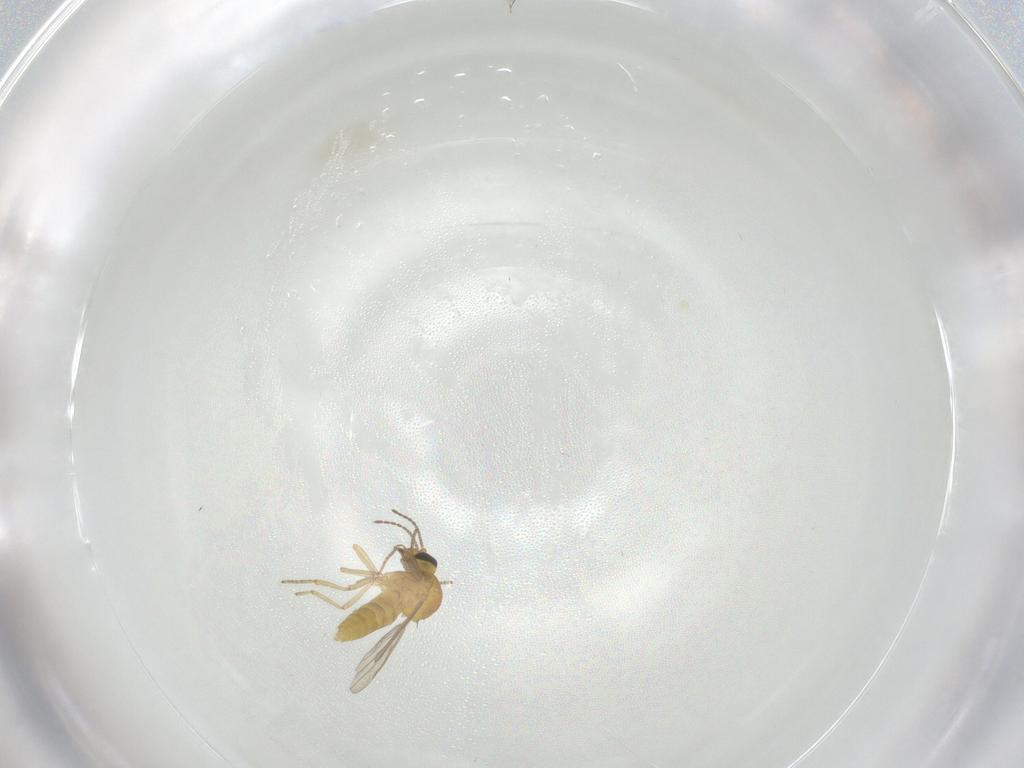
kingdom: Animalia
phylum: Arthropoda
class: Insecta
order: Diptera
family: Ceratopogonidae
